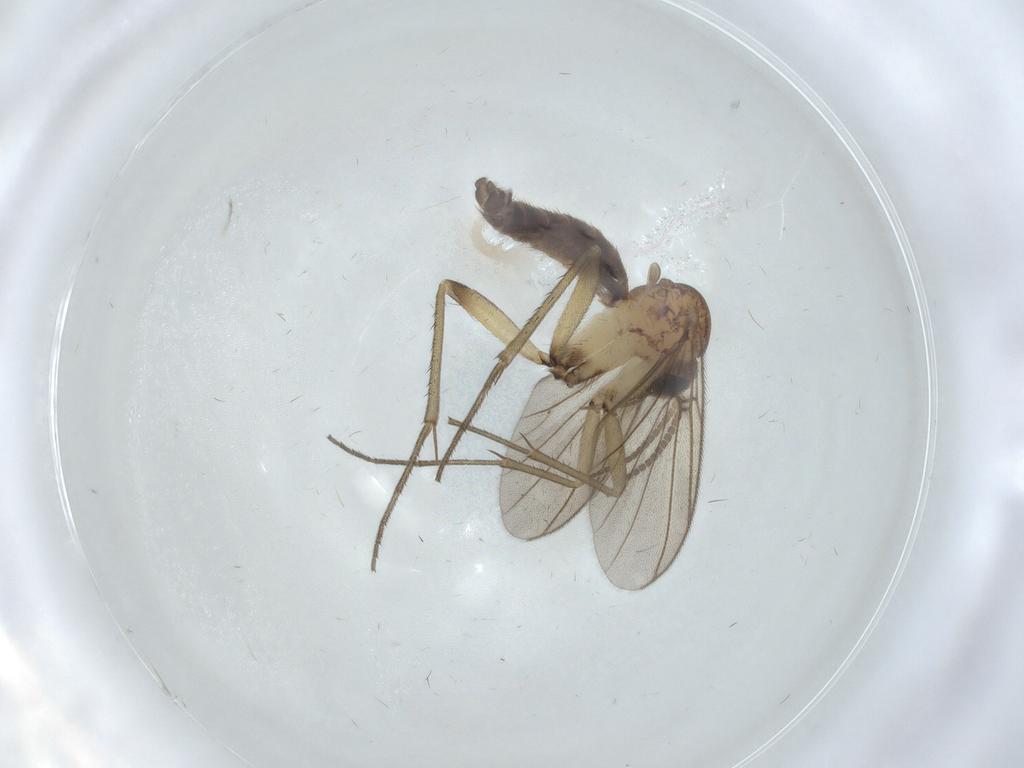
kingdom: Animalia
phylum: Arthropoda
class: Insecta
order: Diptera
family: Mycetophilidae
